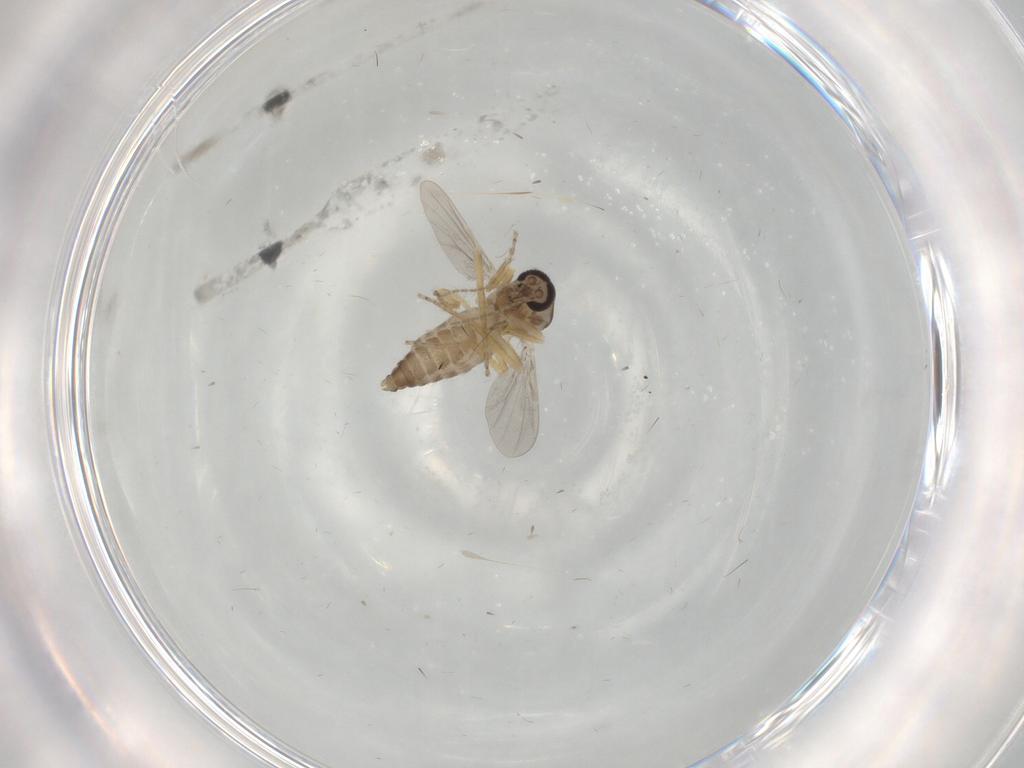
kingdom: Animalia
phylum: Arthropoda
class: Insecta
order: Diptera
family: Ceratopogonidae
